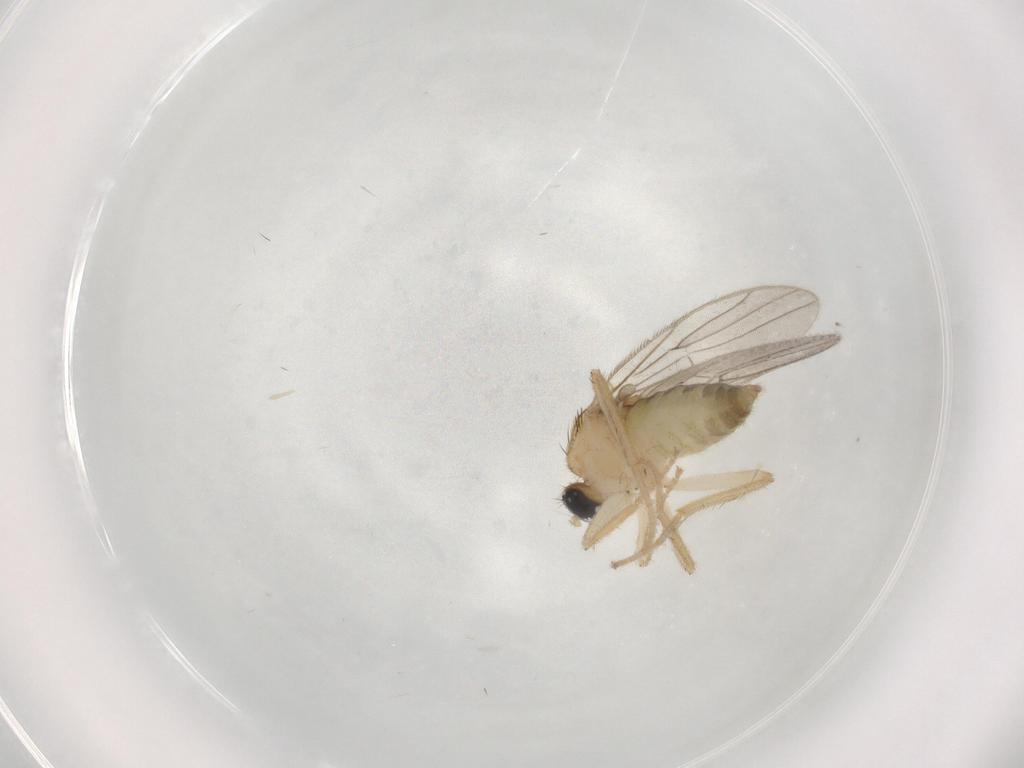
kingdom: Animalia
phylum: Arthropoda
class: Insecta
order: Diptera
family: Hybotidae
